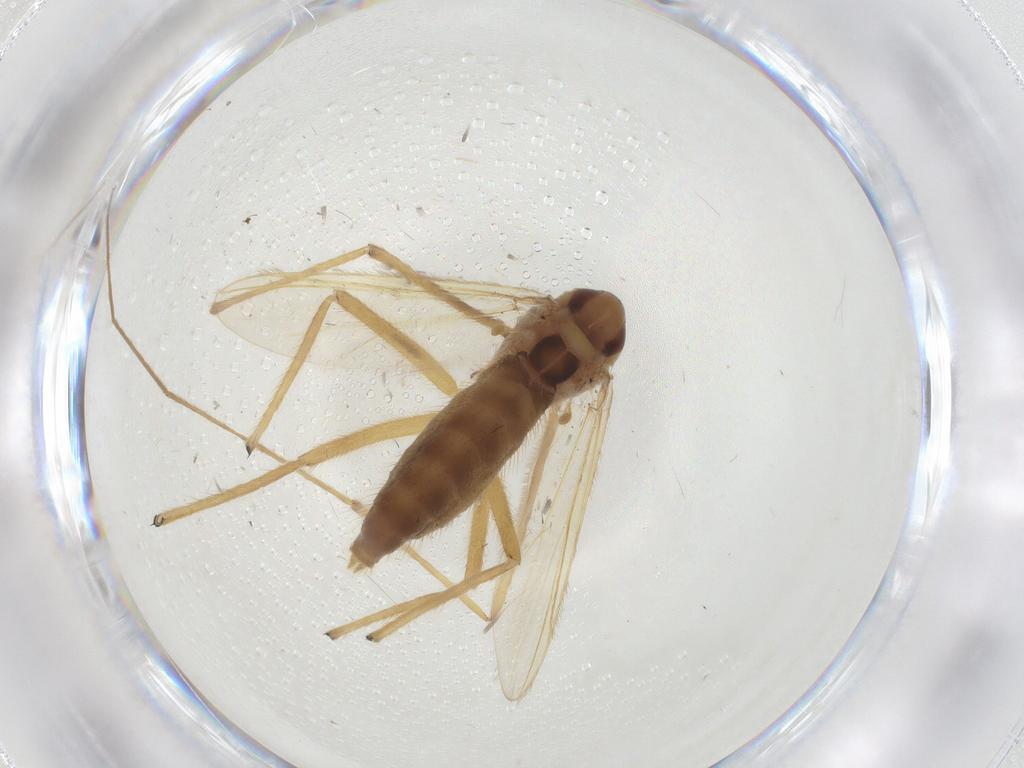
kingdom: Animalia
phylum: Arthropoda
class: Insecta
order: Diptera
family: Chironomidae
